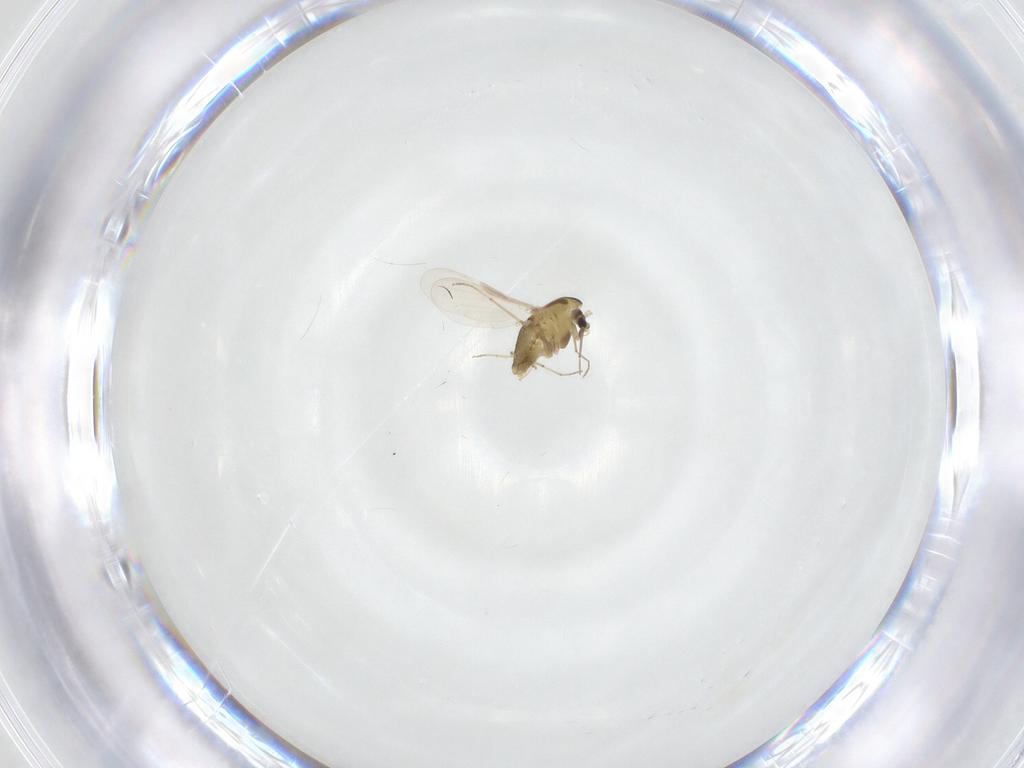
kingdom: Animalia
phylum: Arthropoda
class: Insecta
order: Diptera
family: Chironomidae
